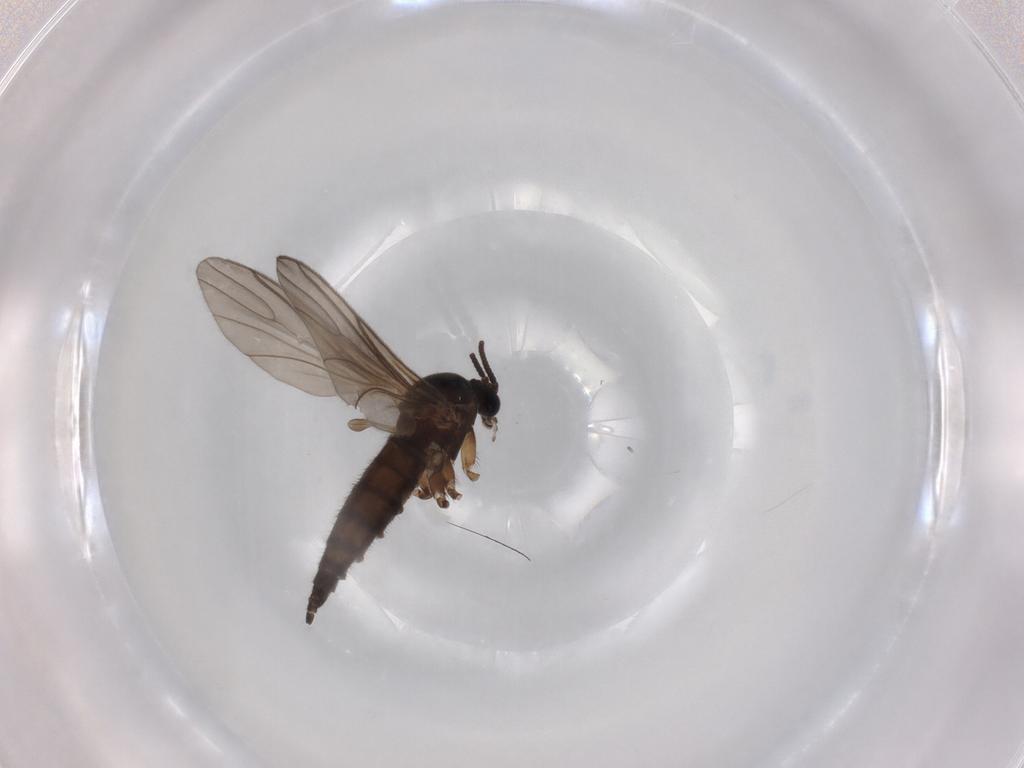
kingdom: Animalia
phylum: Arthropoda
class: Insecta
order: Diptera
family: Sciaridae
